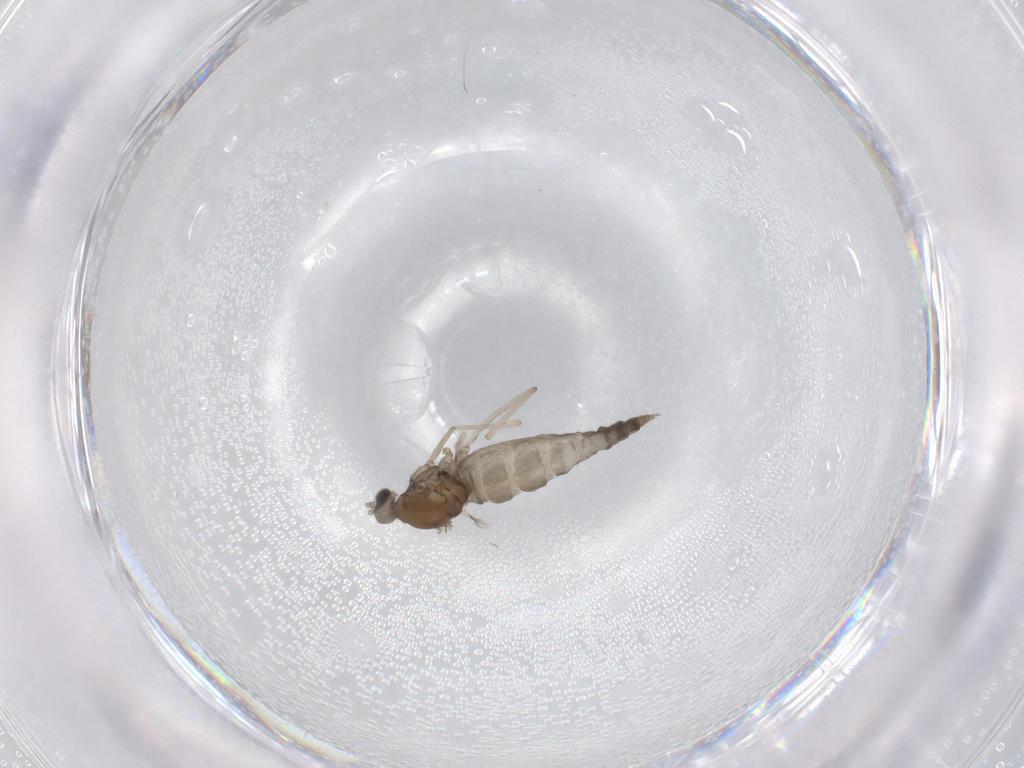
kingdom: Animalia
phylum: Arthropoda
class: Insecta
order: Diptera
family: Cecidomyiidae
